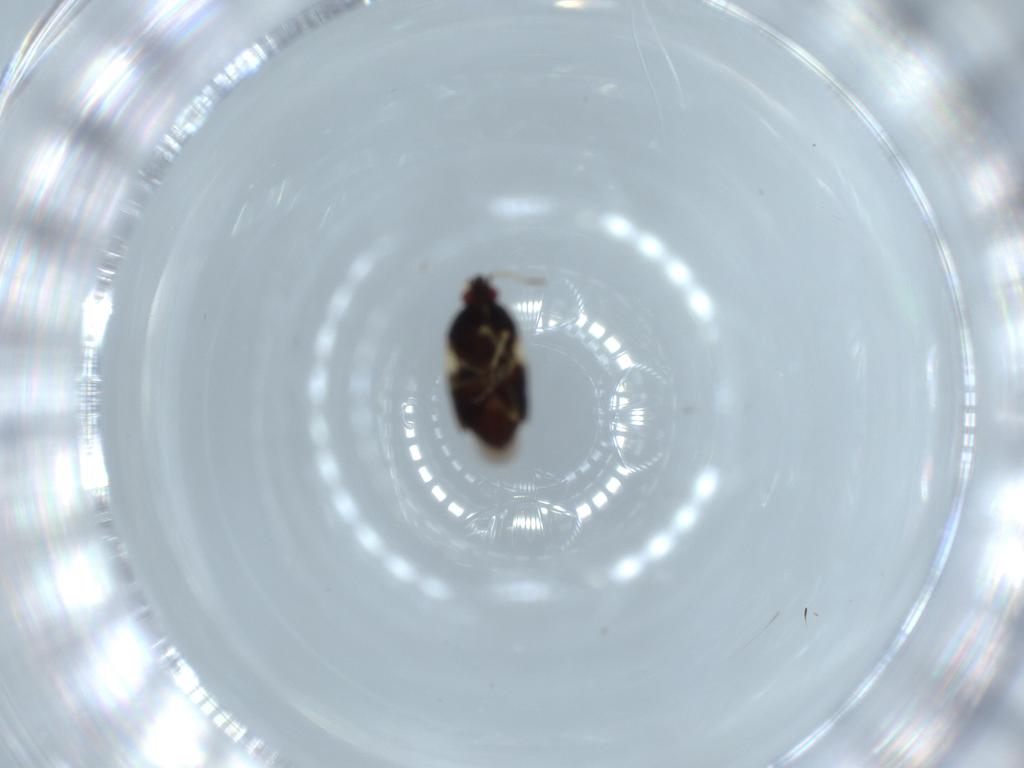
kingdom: Animalia
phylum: Arthropoda
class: Insecta
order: Hemiptera
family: Anthocoridae
